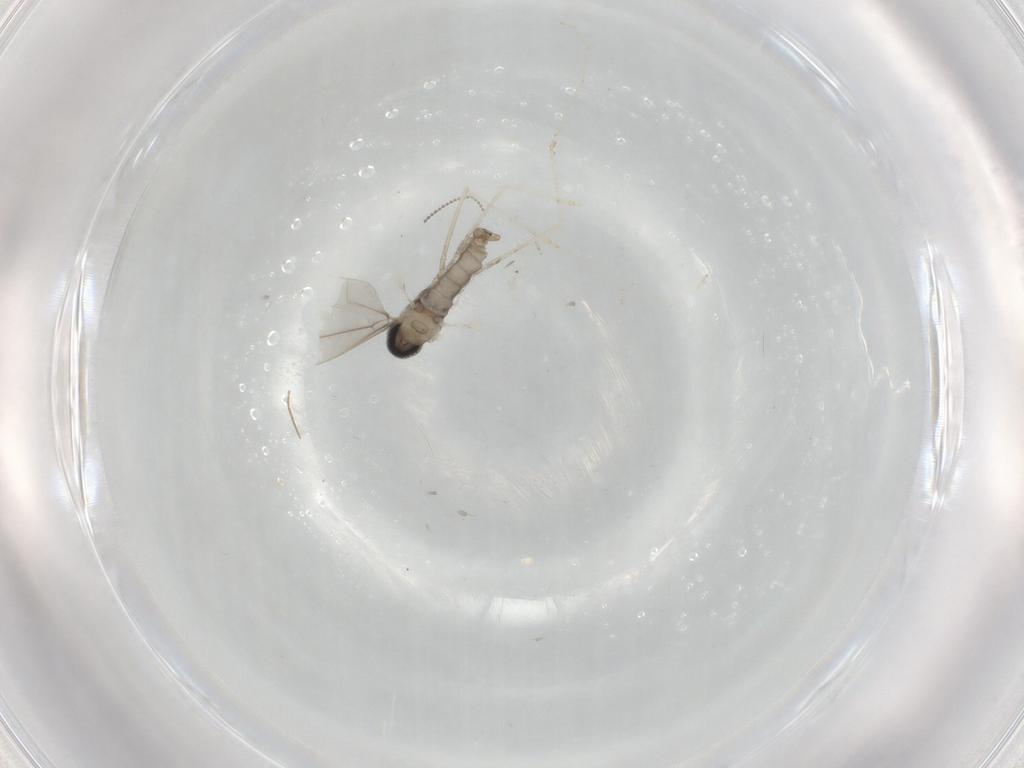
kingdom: Animalia
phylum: Arthropoda
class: Insecta
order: Diptera
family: Cecidomyiidae
